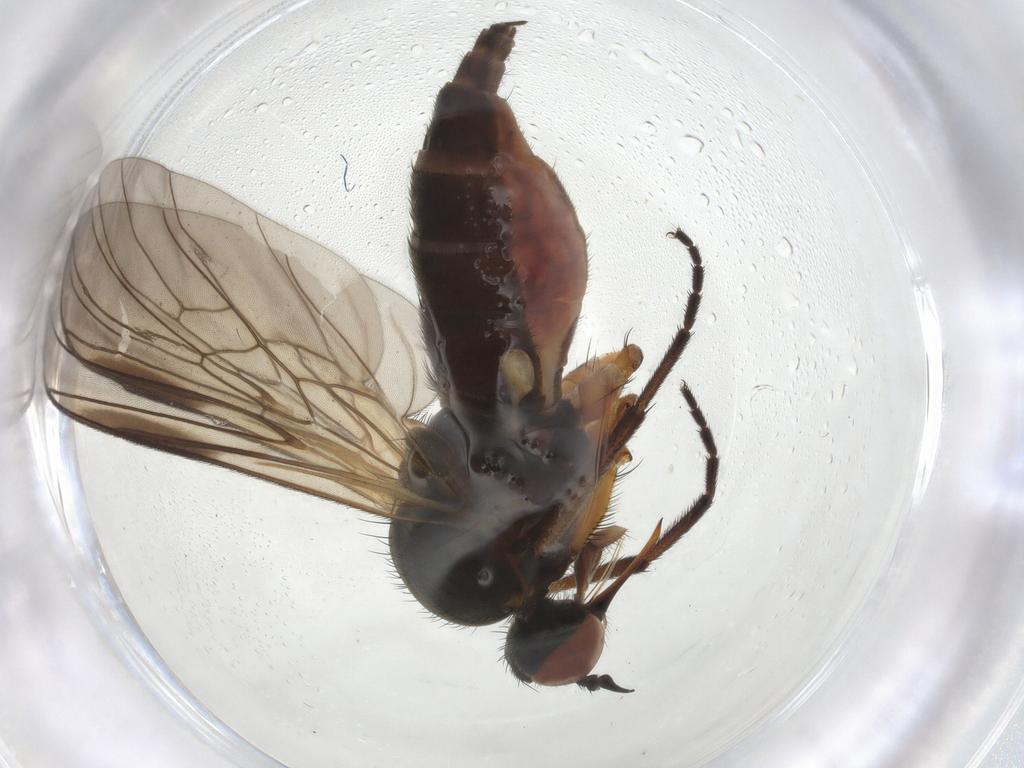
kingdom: Animalia
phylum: Arthropoda
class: Insecta
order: Diptera
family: Hybotidae
